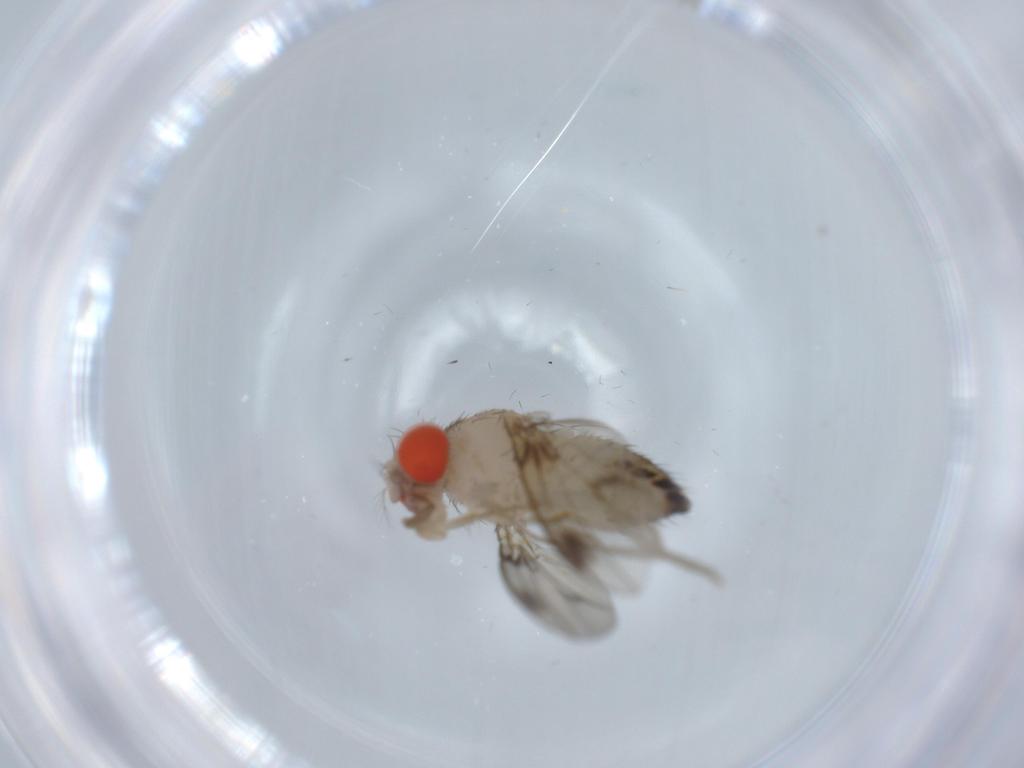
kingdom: Animalia
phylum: Arthropoda
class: Insecta
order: Diptera
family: Drosophilidae
